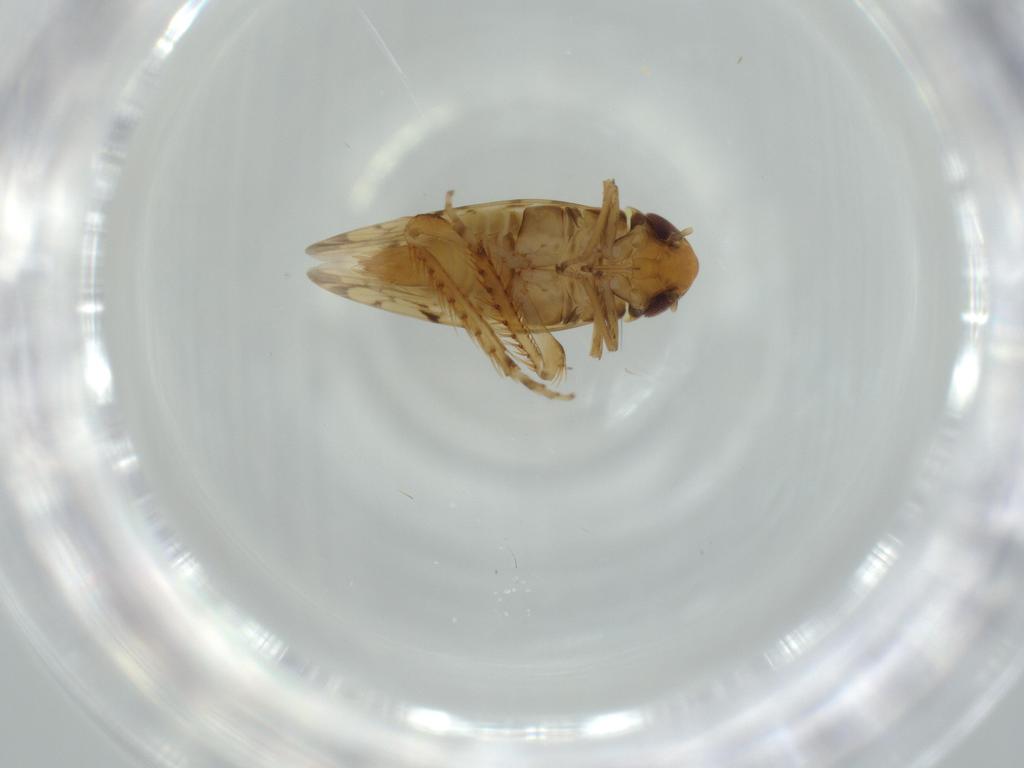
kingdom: Animalia
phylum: Arthropoda
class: Insecta
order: Hemiptera
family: Cicadellidae
